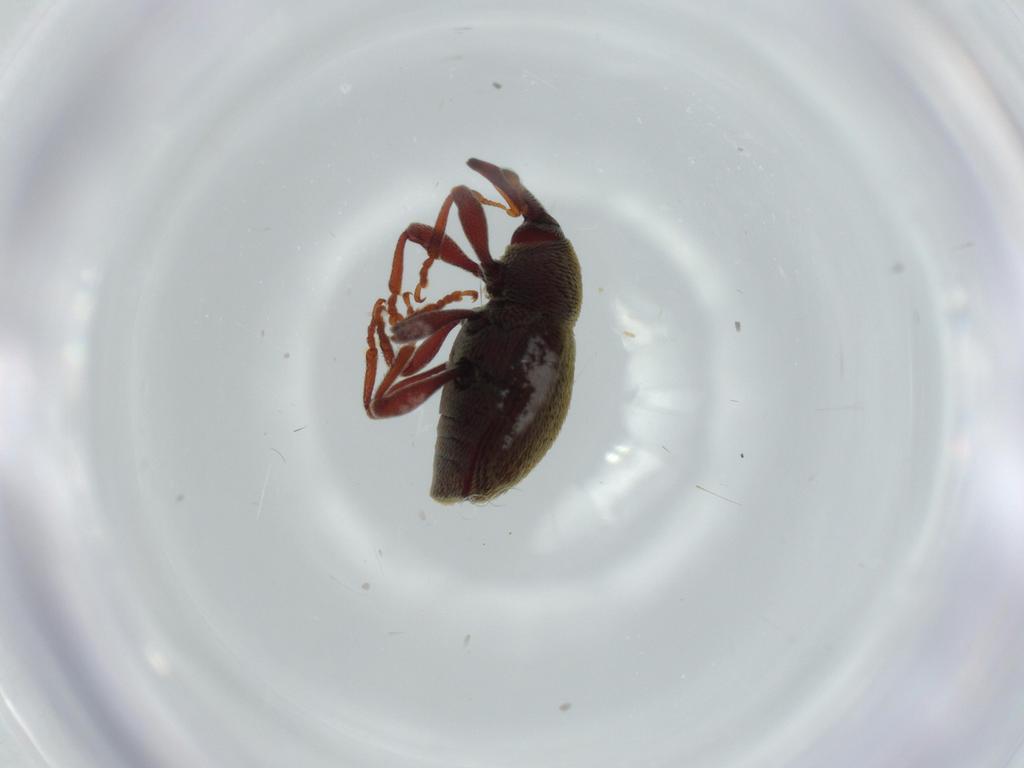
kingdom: Animalia
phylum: Arthropoda
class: Insecta
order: Coleoptera
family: Curculionidae
